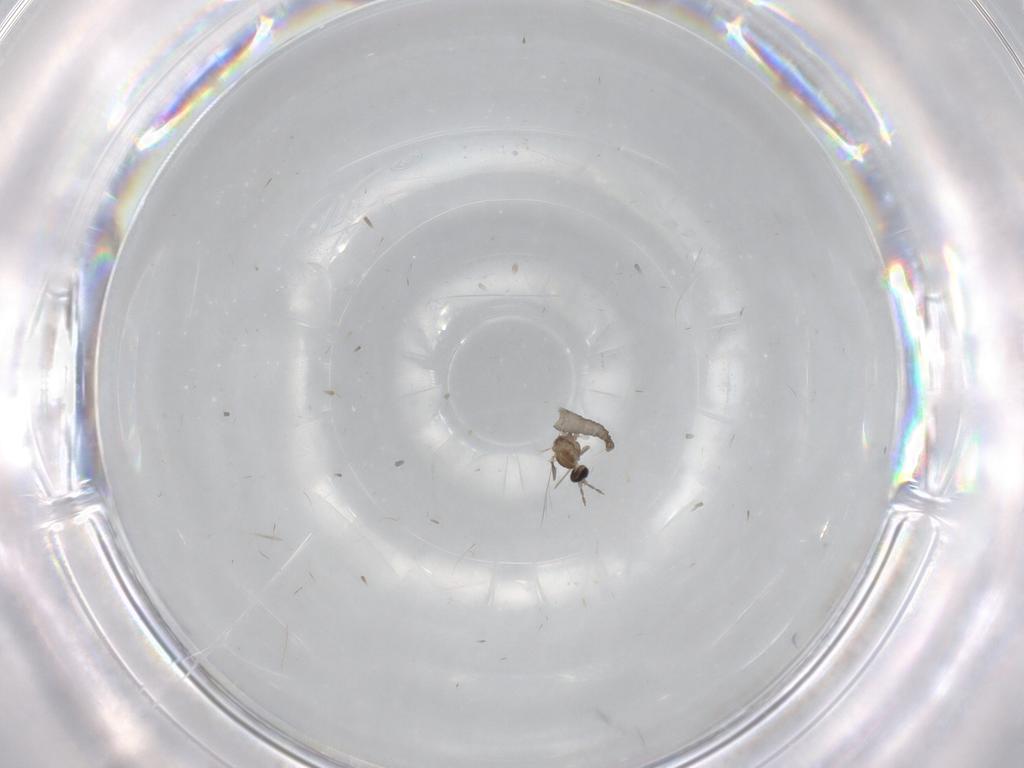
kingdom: Animalia
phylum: Arthropoda
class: Insecta
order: Diptera
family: Cecidomyiidae
